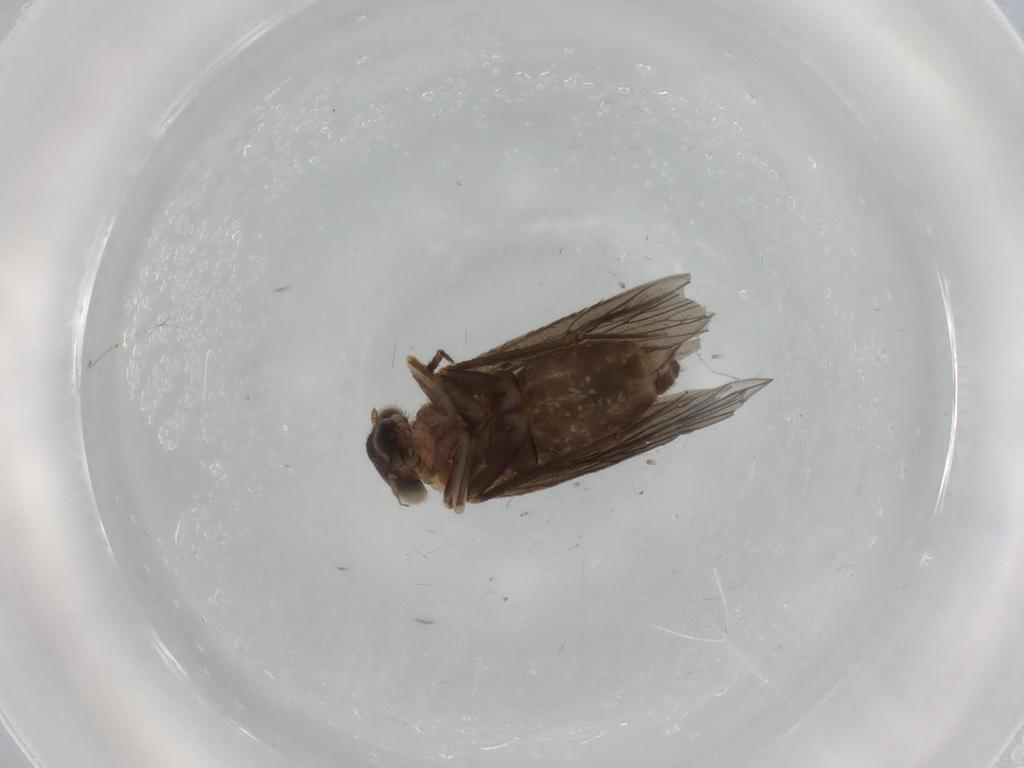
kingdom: Animalia
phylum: Arthropoda
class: Insecta
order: Psocodea
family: Lepidopsocidae
